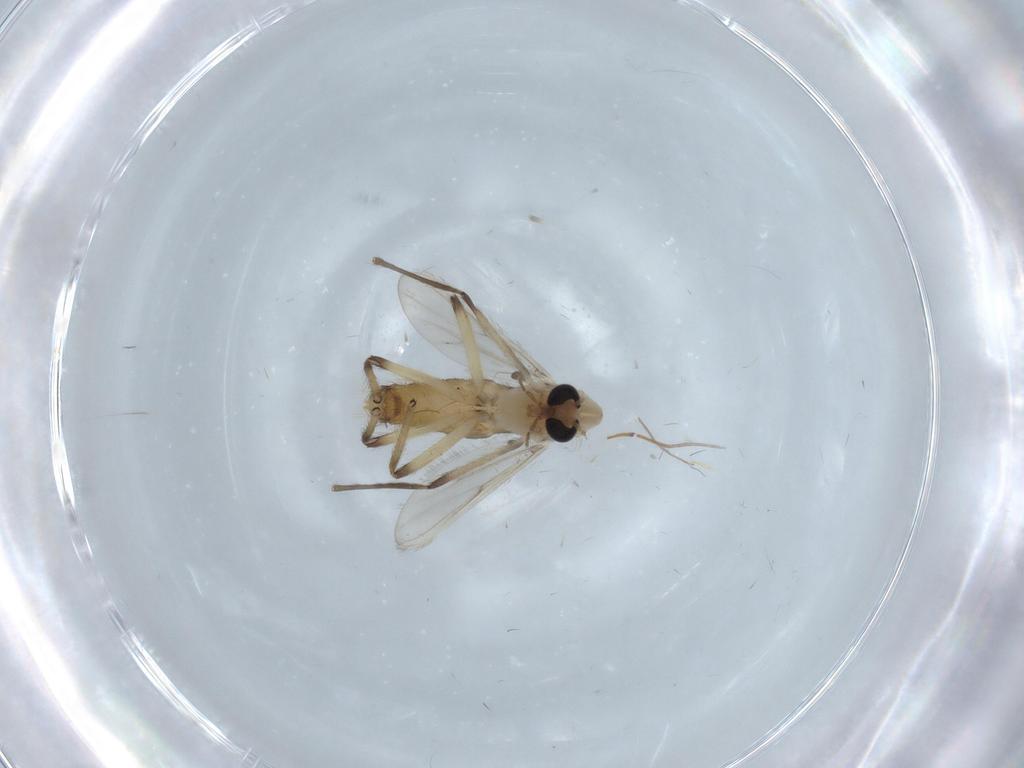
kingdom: Animalia
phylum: Arthropoda
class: Insecta
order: Diptera
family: Chironomidae
